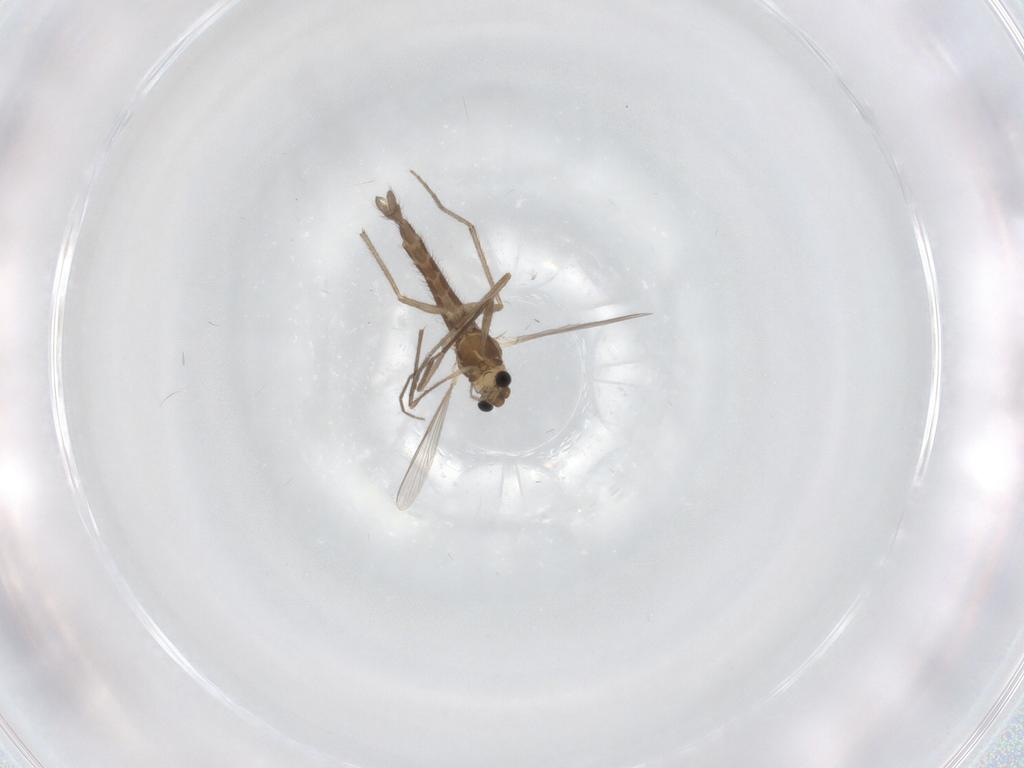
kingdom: Animalia
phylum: Arthropoda
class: Insecta
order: Diptera
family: Chironomidae
